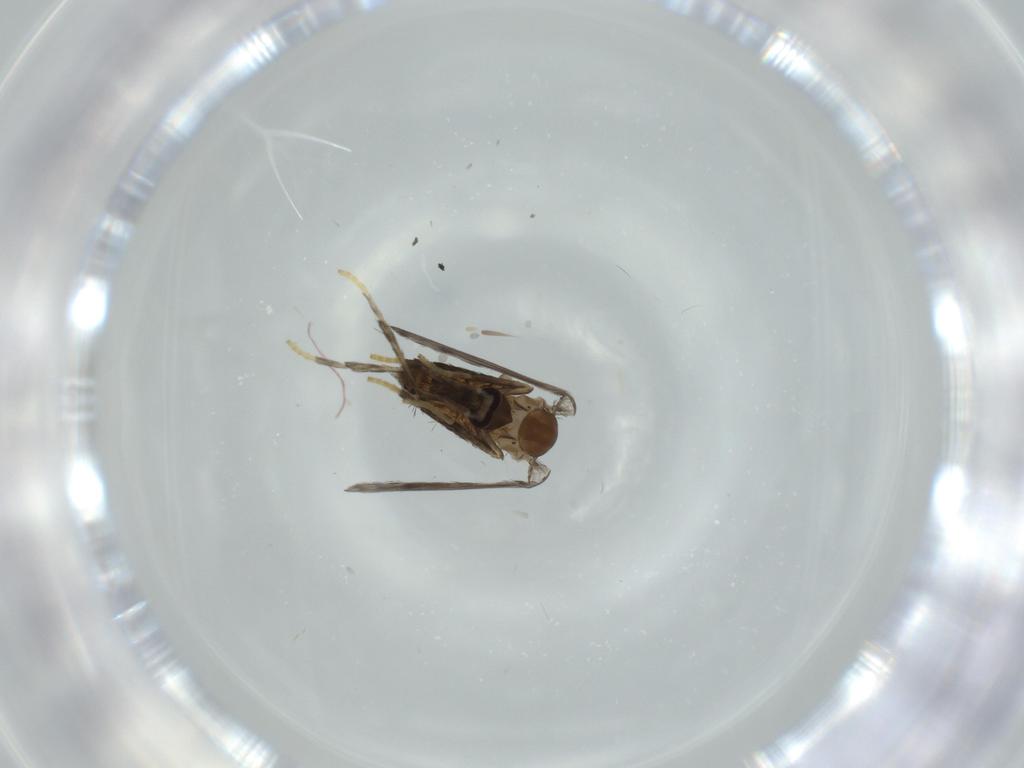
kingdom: Animalia
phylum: Arthropoda
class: Insecta
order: Diptera
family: Psychodidae
